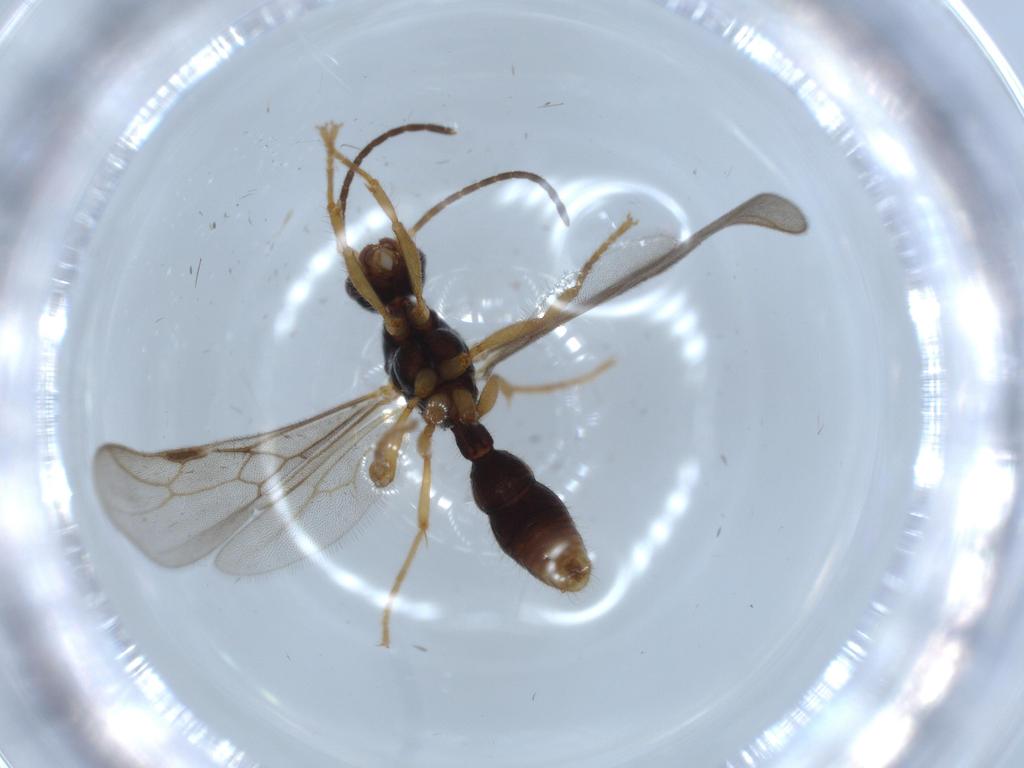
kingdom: Animalia
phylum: Arthropoda
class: Insecta
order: Hymenoptera
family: Formicidae
